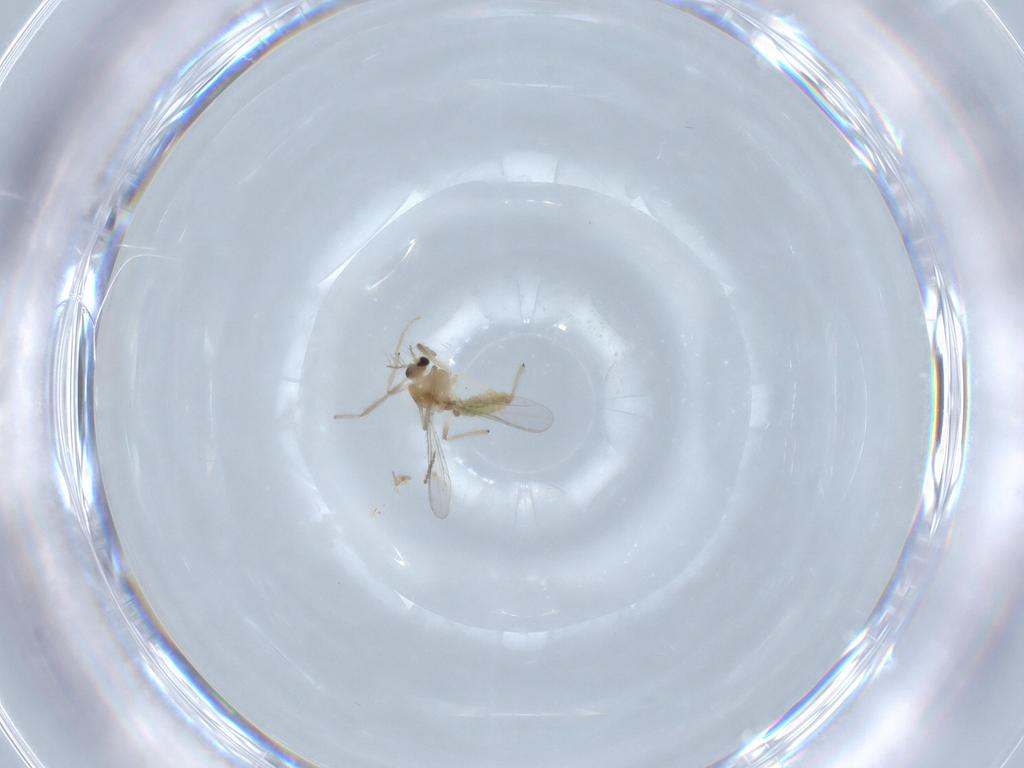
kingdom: Animalia
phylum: Arthropoda
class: Insecta
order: Diptera
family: Chironomidae
